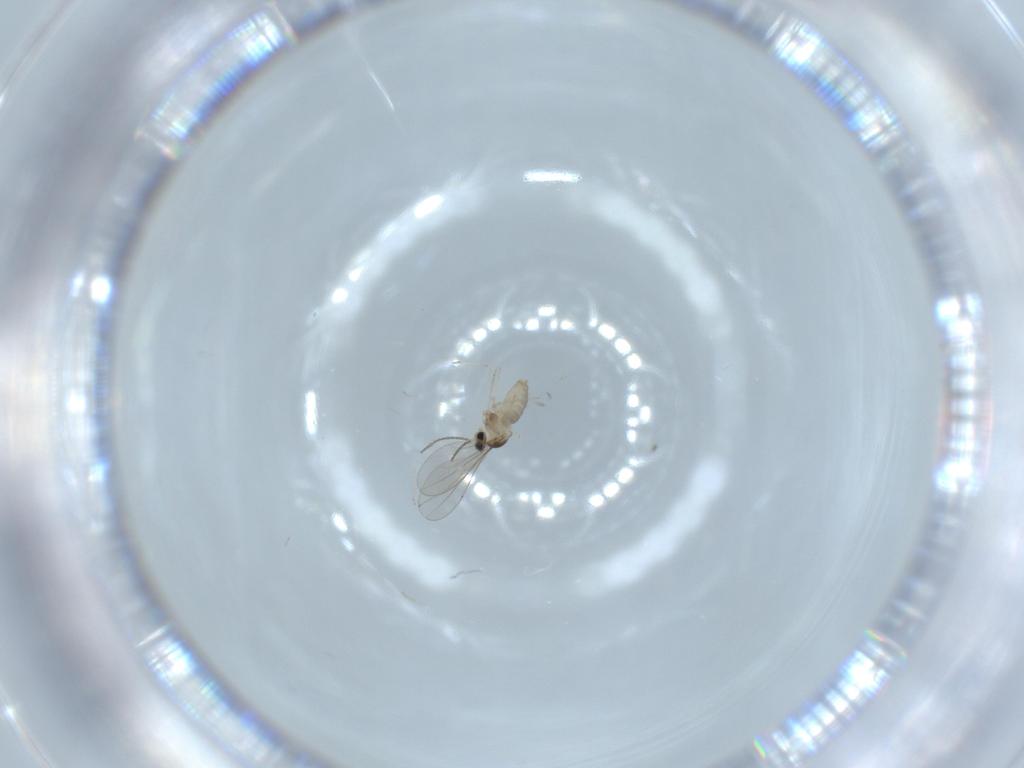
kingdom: Animalia
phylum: Arthropoda
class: Insecta
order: Diptera
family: Cecidomyiidae
